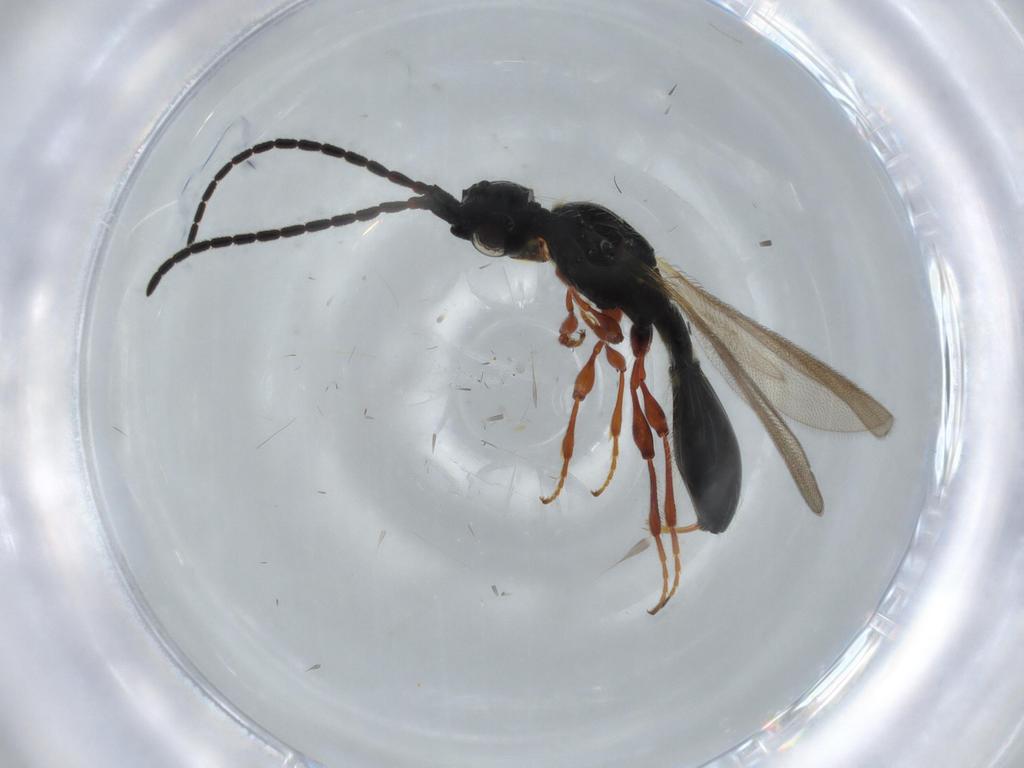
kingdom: Animalia
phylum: Arthropoda
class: Insecta
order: Hymenoptera
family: Diapriidae
